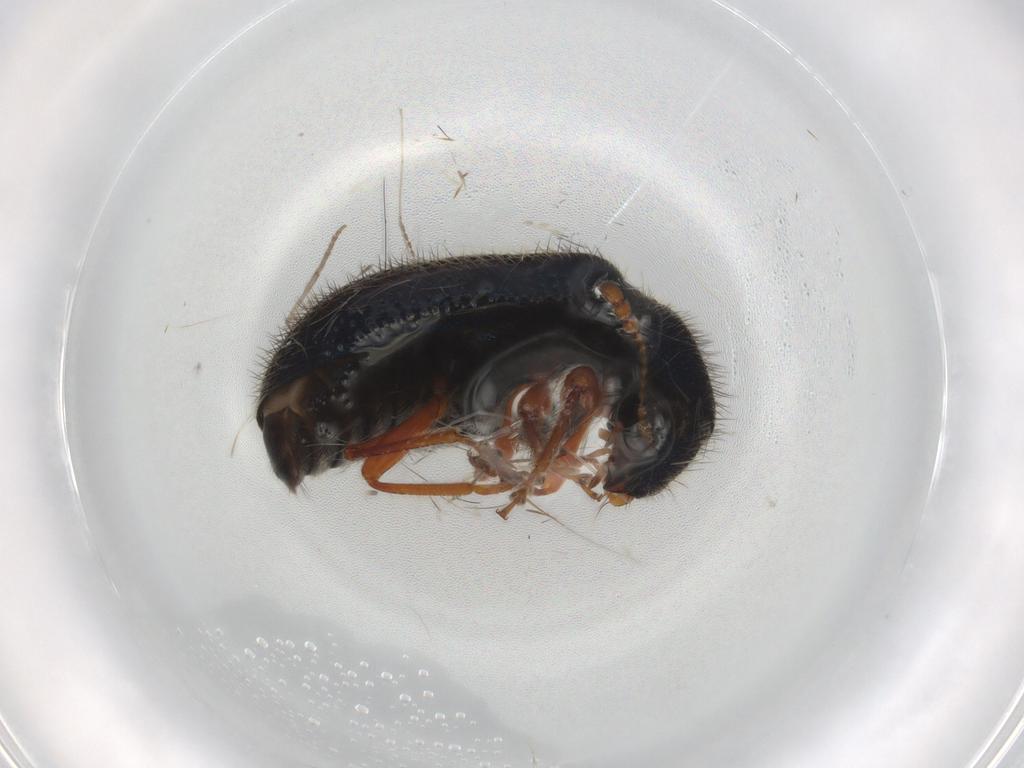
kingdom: Animalia
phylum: Arthropoda
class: Insecta
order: Coleoptera
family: Cleridae
